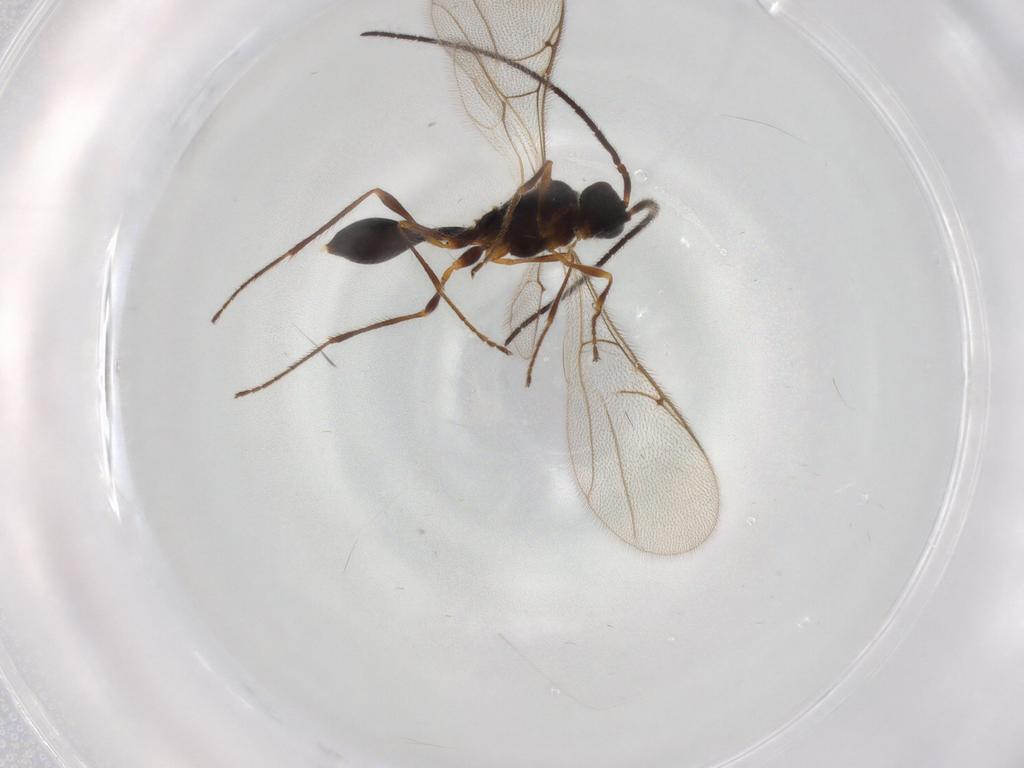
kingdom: Animalia
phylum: Arthropoda
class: Insecta
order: Hymenoptera
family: Diapriidae
